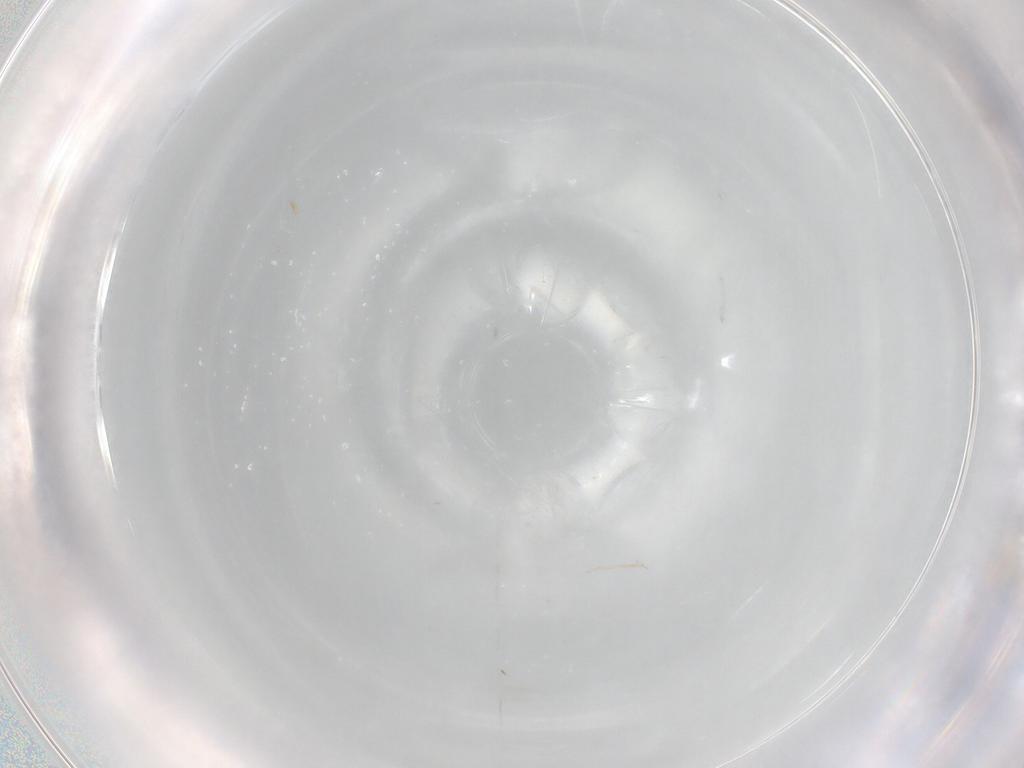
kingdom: Animalia
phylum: Arthropoda
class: Insecta
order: Hymenoptera
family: Mymaridae
